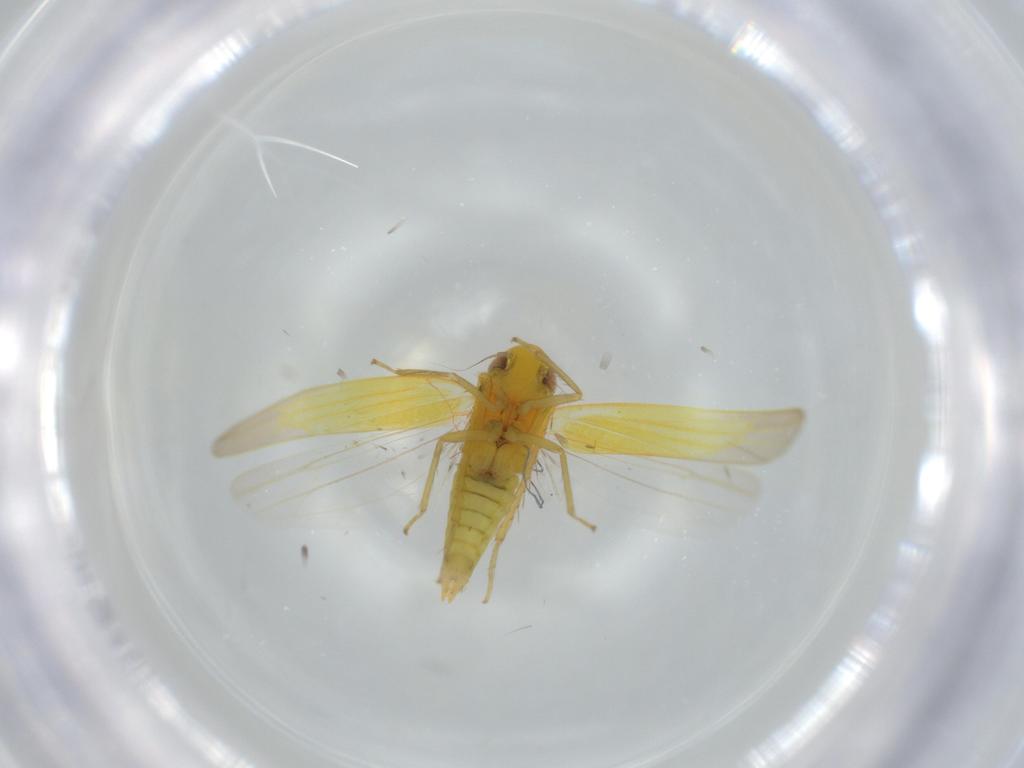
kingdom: Animalia
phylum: Arthropoda
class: Insecta
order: Hemiptera
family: Cicadellidae
